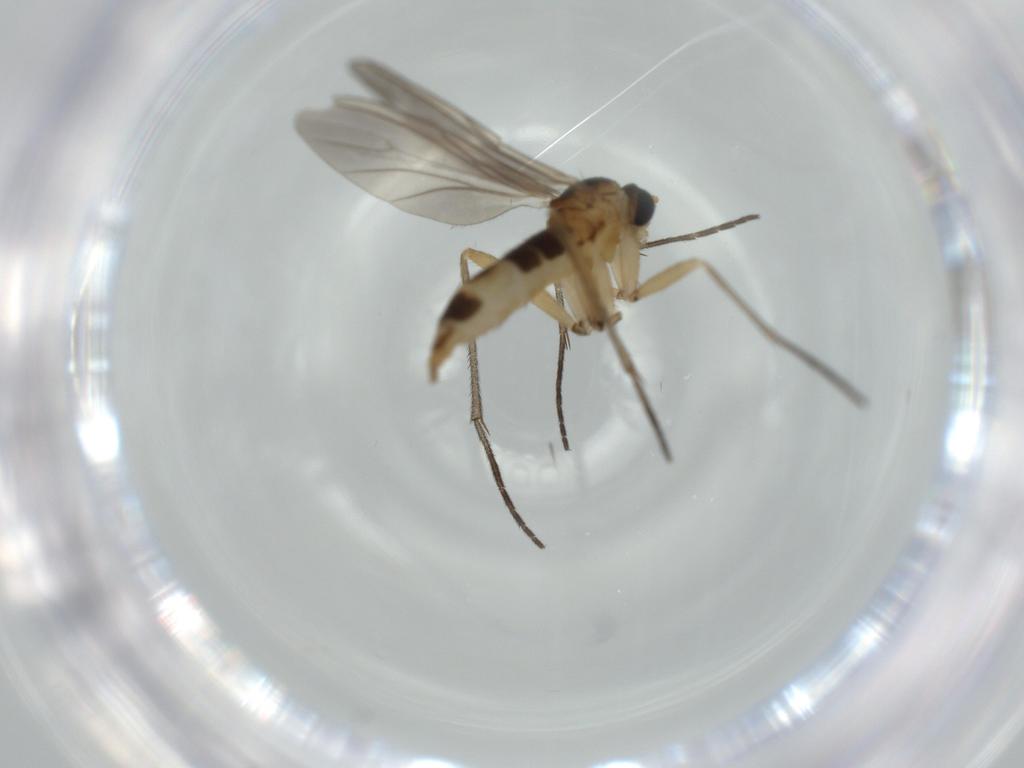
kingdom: Animalia
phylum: Arthropoda
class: Insecta
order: Diptera
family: Sciaridae
